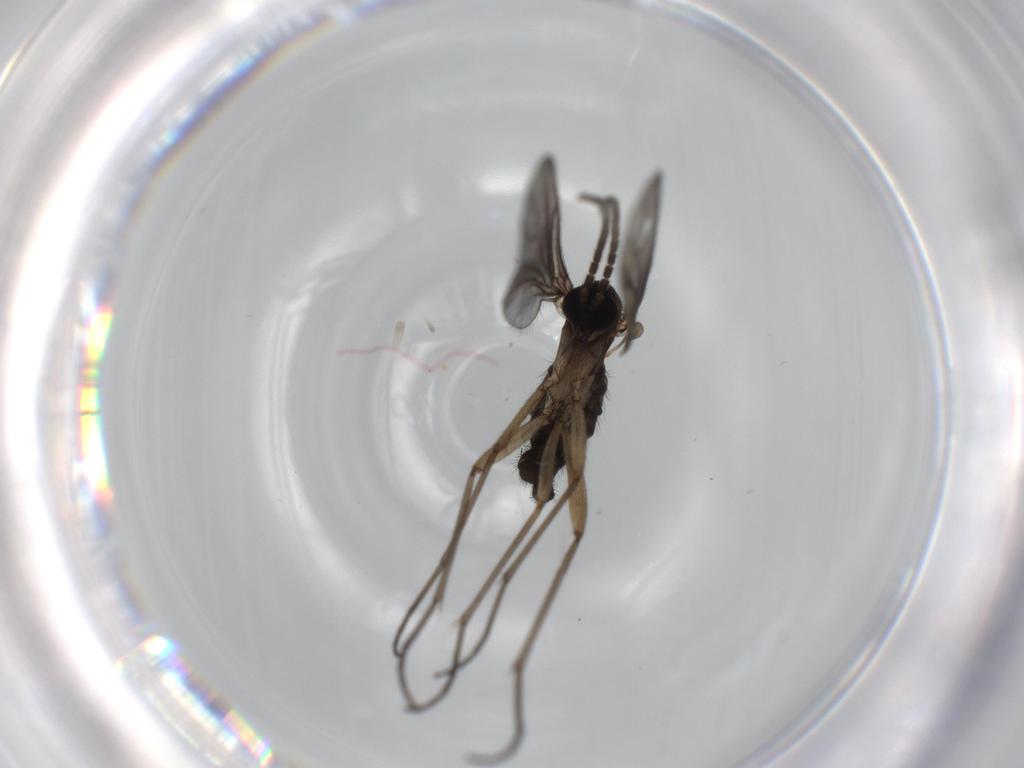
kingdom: Animalia
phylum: Arthropoda
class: Insecta
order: Diptera
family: Sciaridae
